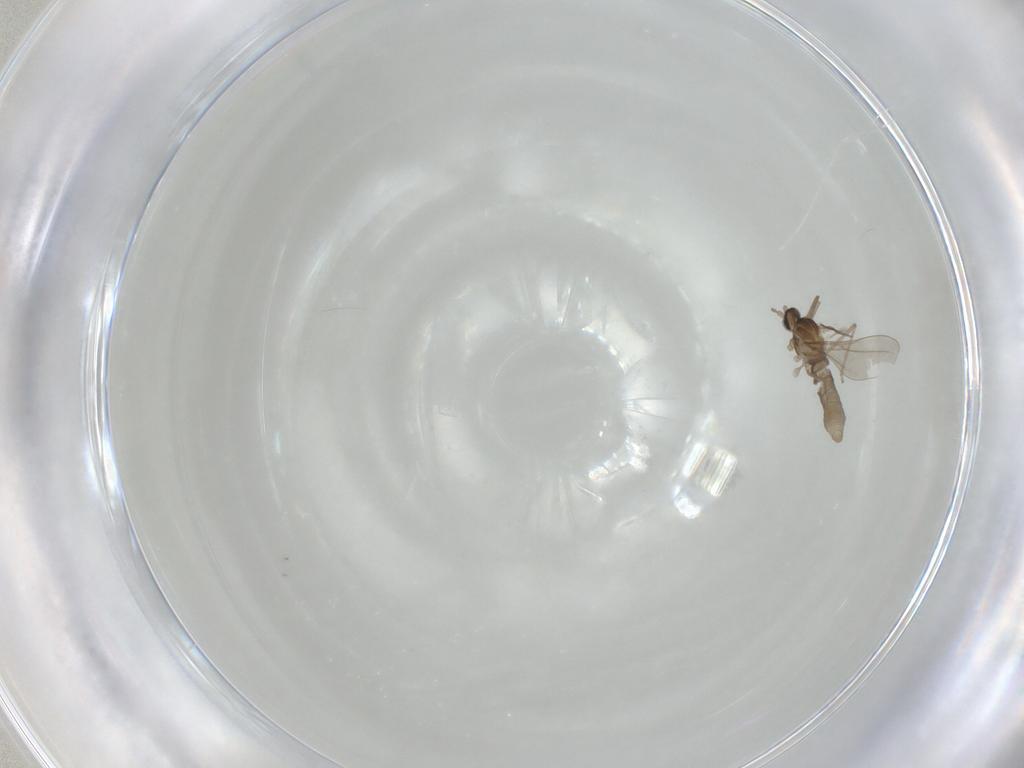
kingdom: Animalia
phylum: Arthropoda
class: Insecta
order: Diptera
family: Cecidomyiidae
